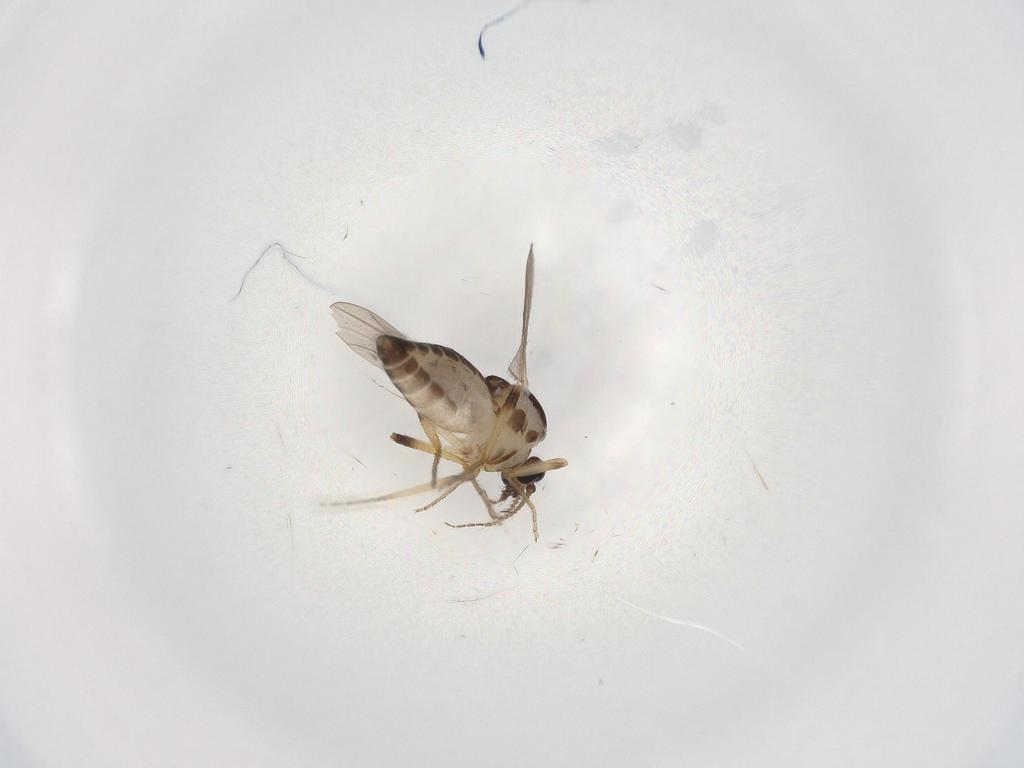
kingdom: Animalia
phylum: Arthropoda
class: Insecta
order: Diptera
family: Ceratopogonidae
